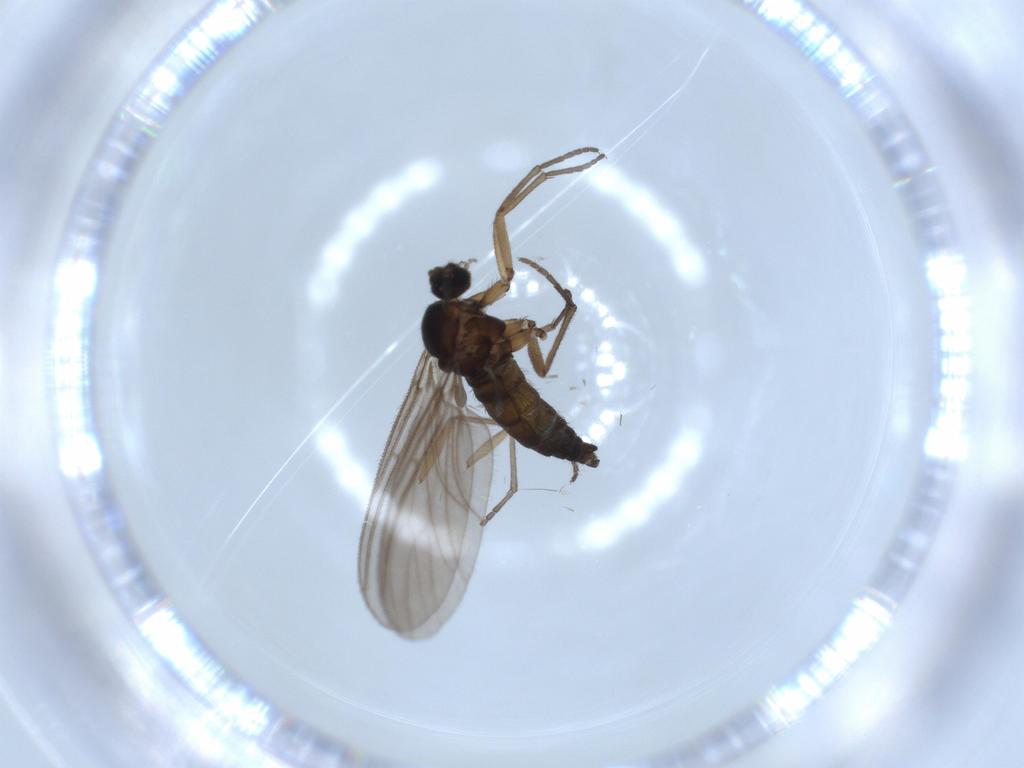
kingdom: Animalia
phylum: Arthropoda
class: Insecta
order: Diptera
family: Sciaridae
